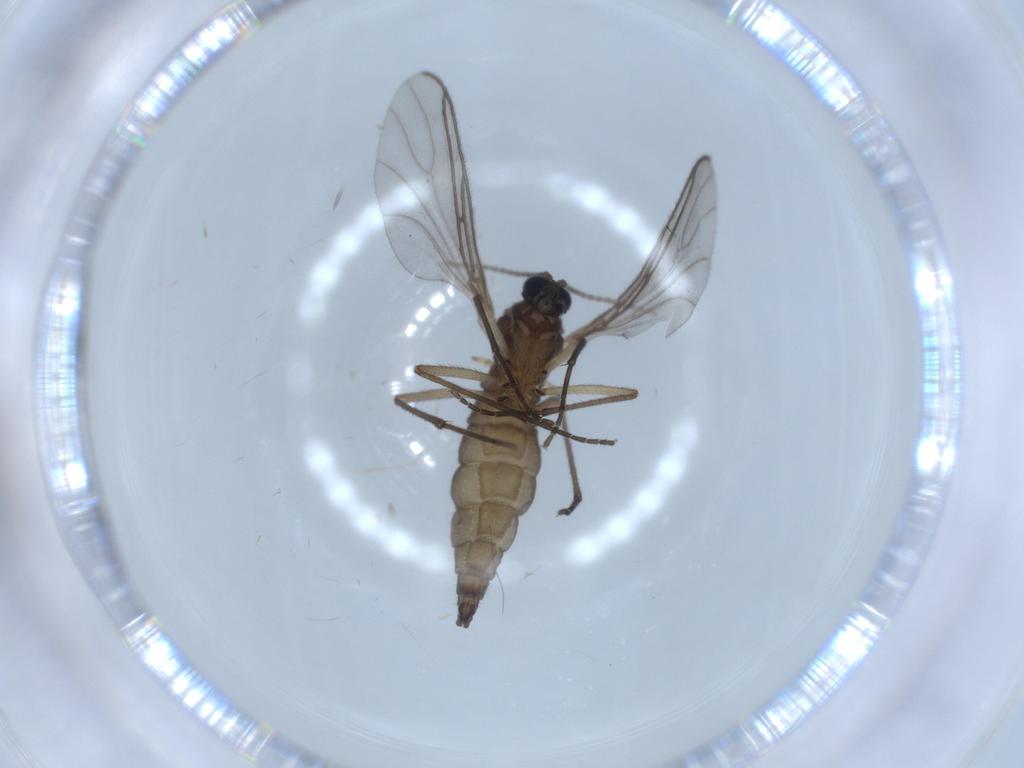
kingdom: Animalia
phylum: Arthropoda
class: Insecta
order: Diptera
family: Sciaridae
